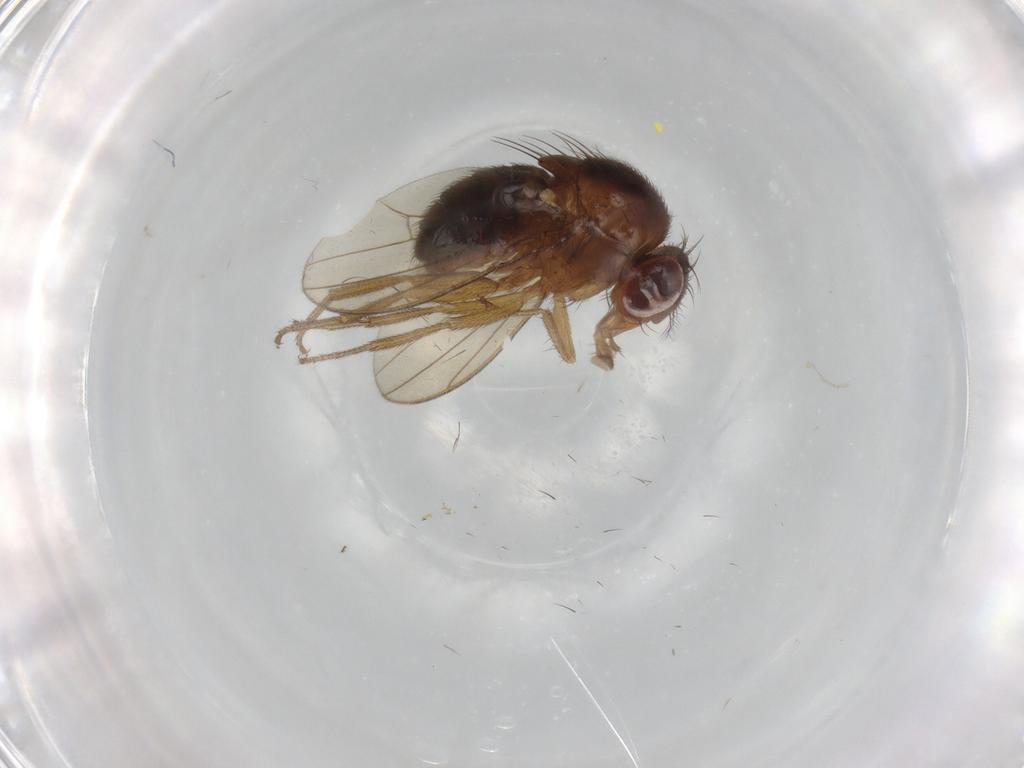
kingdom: Animalia
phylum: Arthropoda
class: Insecta
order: Diptera
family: Drosophilidae
